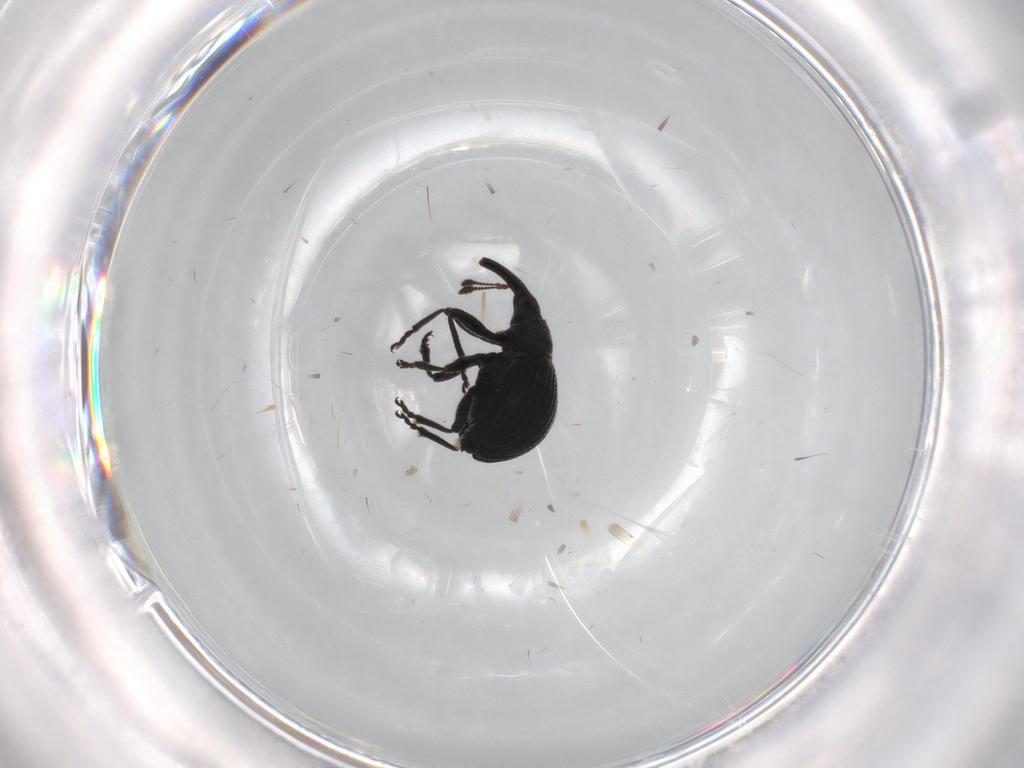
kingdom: Animalia
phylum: Arthropoda
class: Insecta
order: Coleoptera
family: Brentidae
